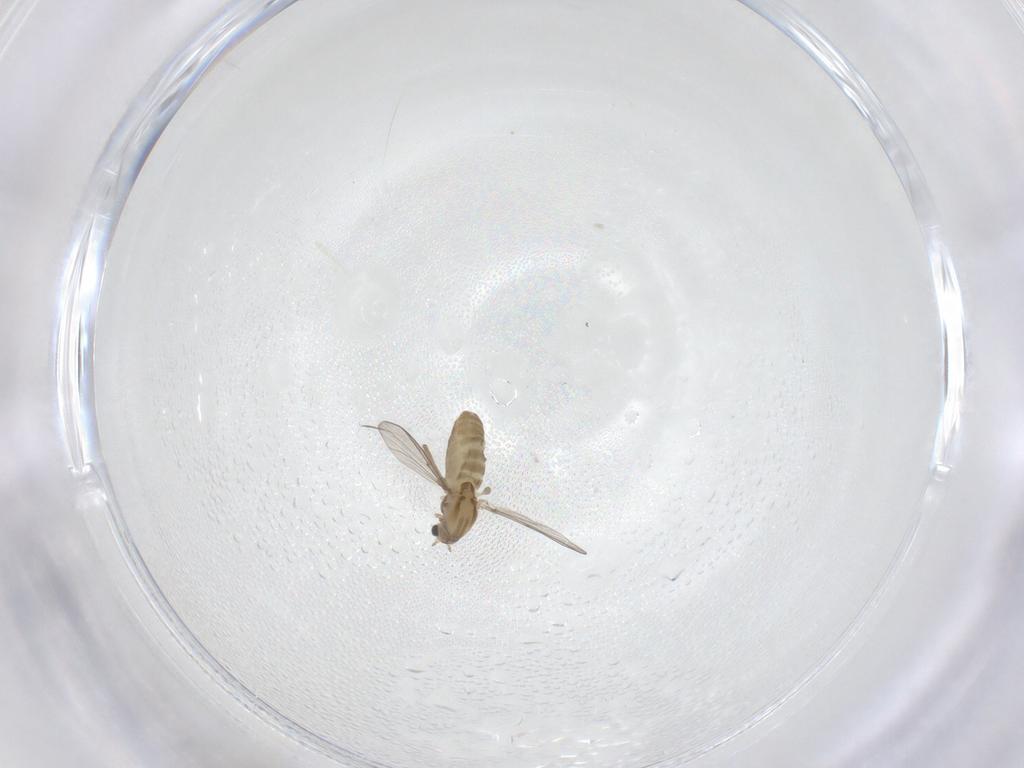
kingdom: Animalia
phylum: Arthropoda
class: Insecta
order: Diptera
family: Chironomidae
